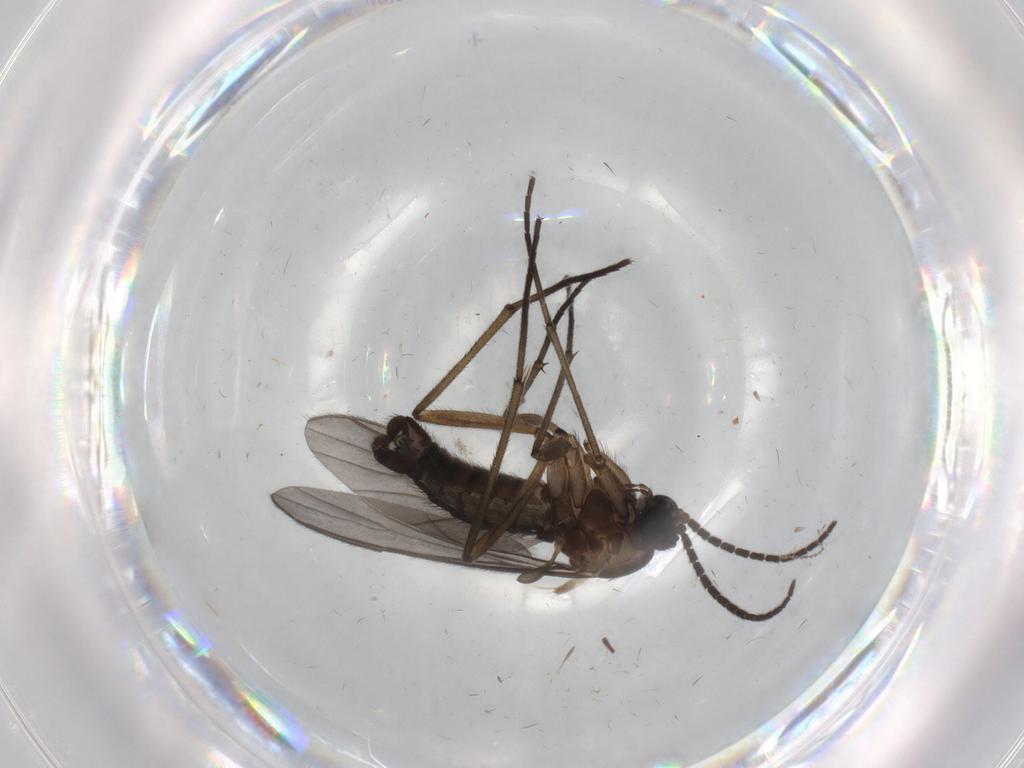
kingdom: Animalia
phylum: Arthropoda
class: Insecta
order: Diptera
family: Sciaridae
